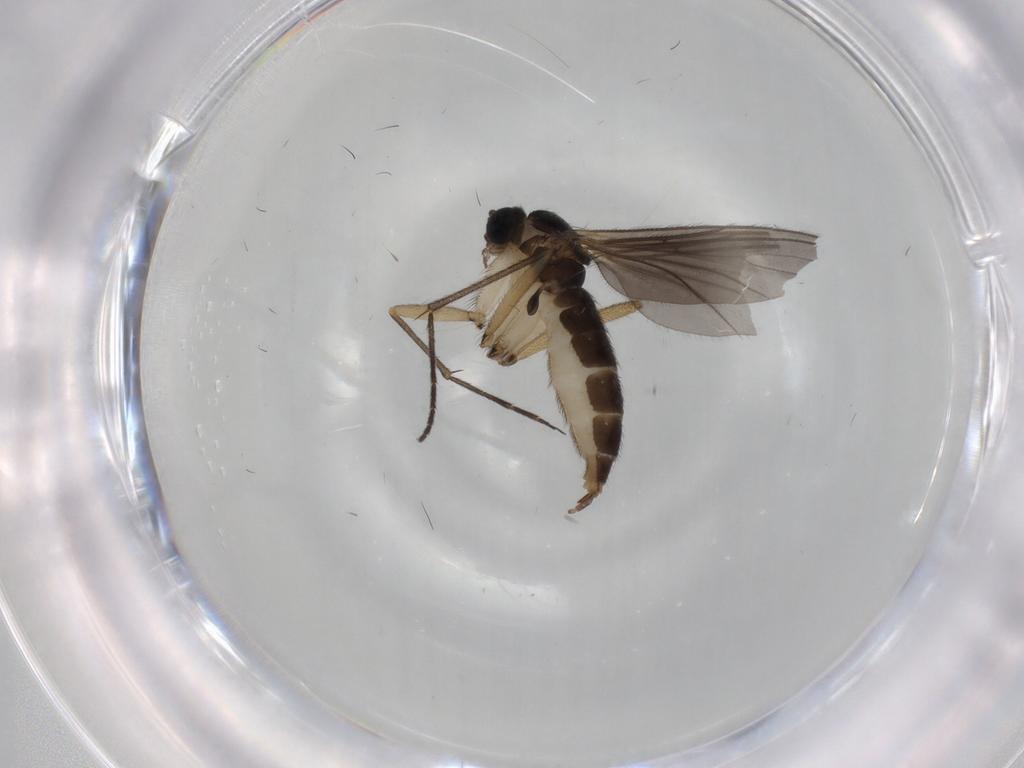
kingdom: Animalia
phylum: Arthropoda
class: Insecta
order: Diptera
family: Sciaridae
